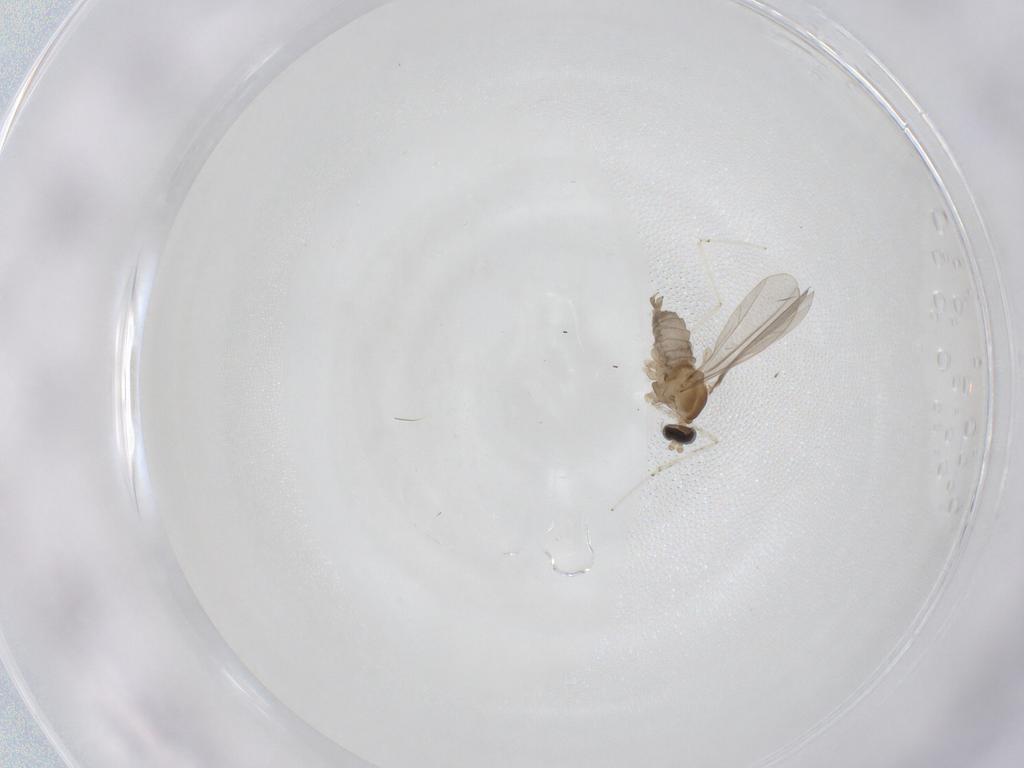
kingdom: Animalia
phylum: Arthropoda
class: Insecta
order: Diptera
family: Cecidomyiidae
